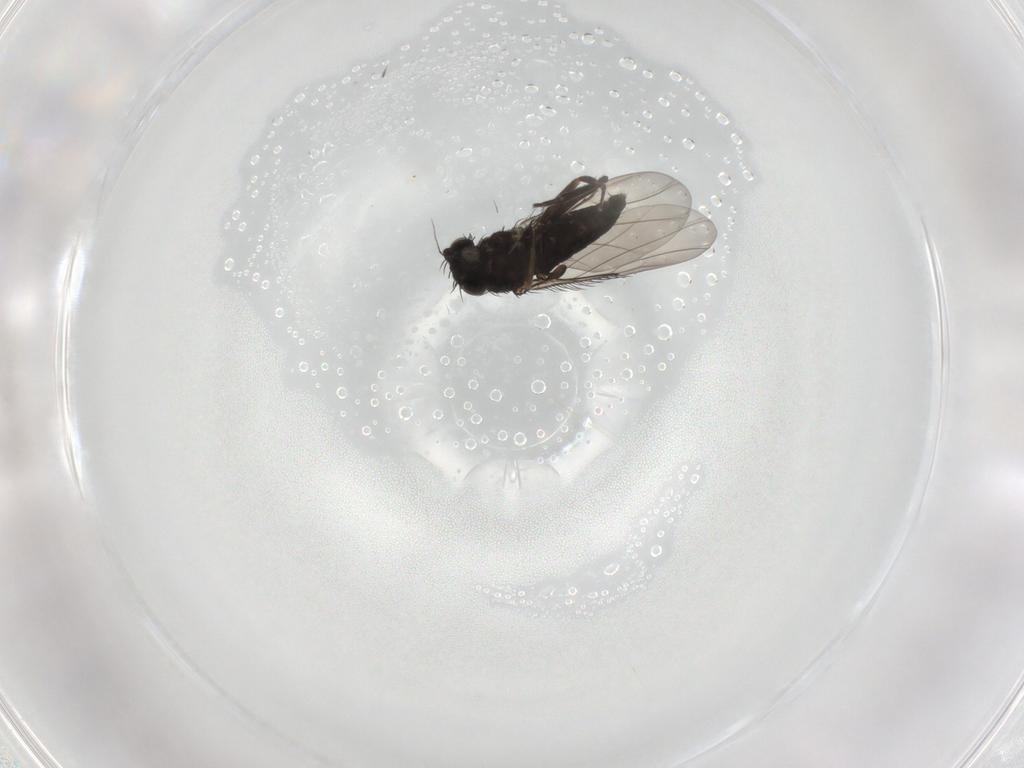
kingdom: Animalia
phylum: Arthropoda
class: Insecta
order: Diptera
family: Phoridae
